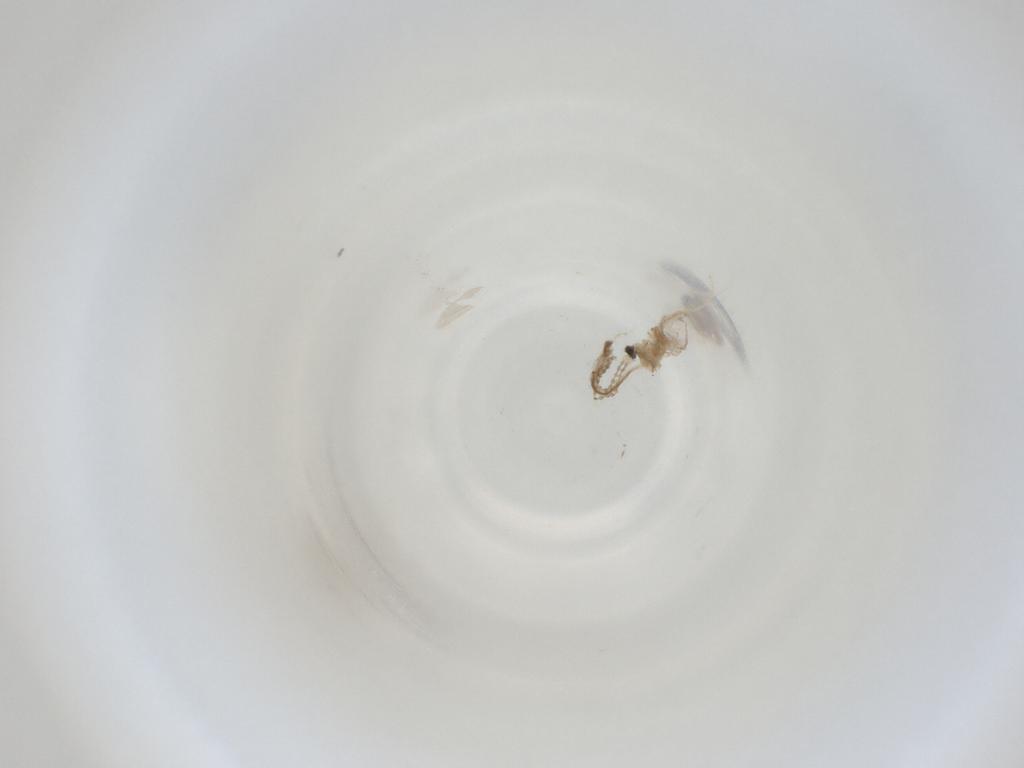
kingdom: Animalia
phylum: Arthropoda
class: Insecta
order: Diptera
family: Cecidomyiidae
